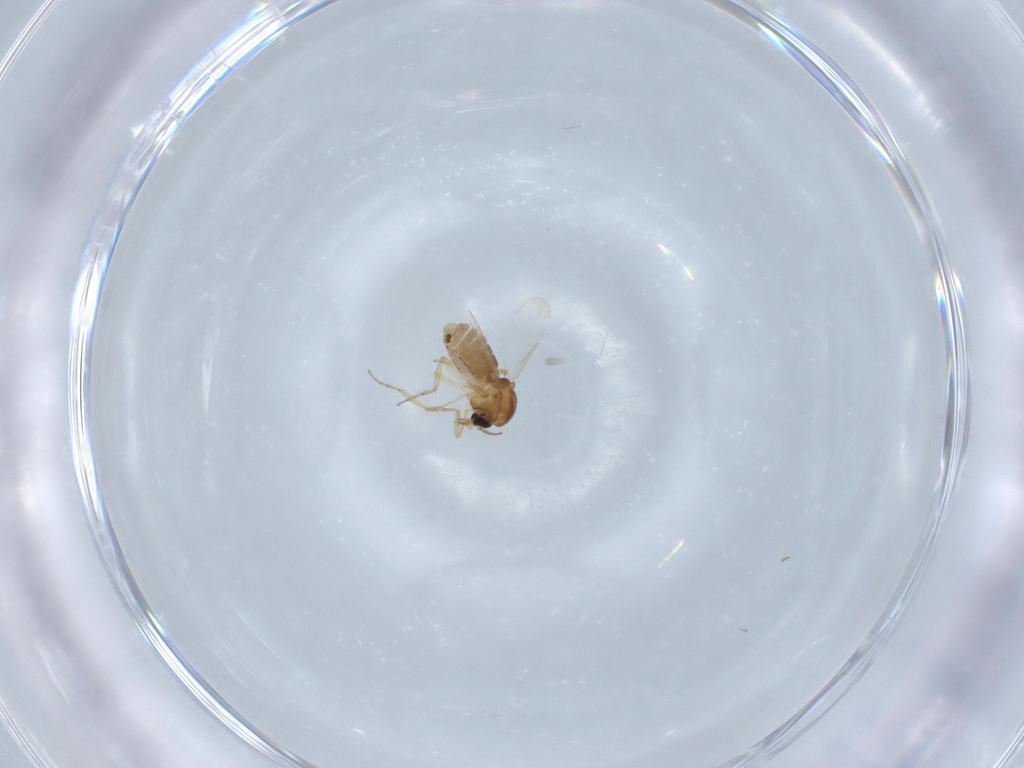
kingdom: Animalia
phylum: Arthropoda
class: Insecta
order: Diptera
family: Ceratopogonidae
